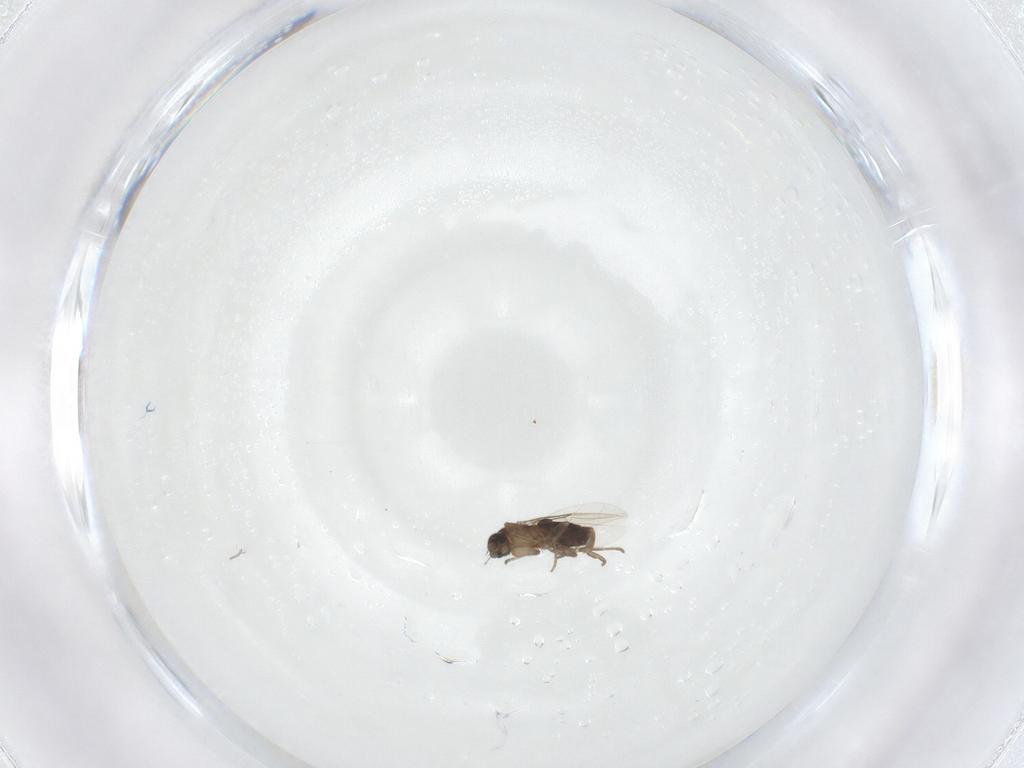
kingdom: Animalia
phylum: Arthropoda
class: Insecta
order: Diptera
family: Phoridae
